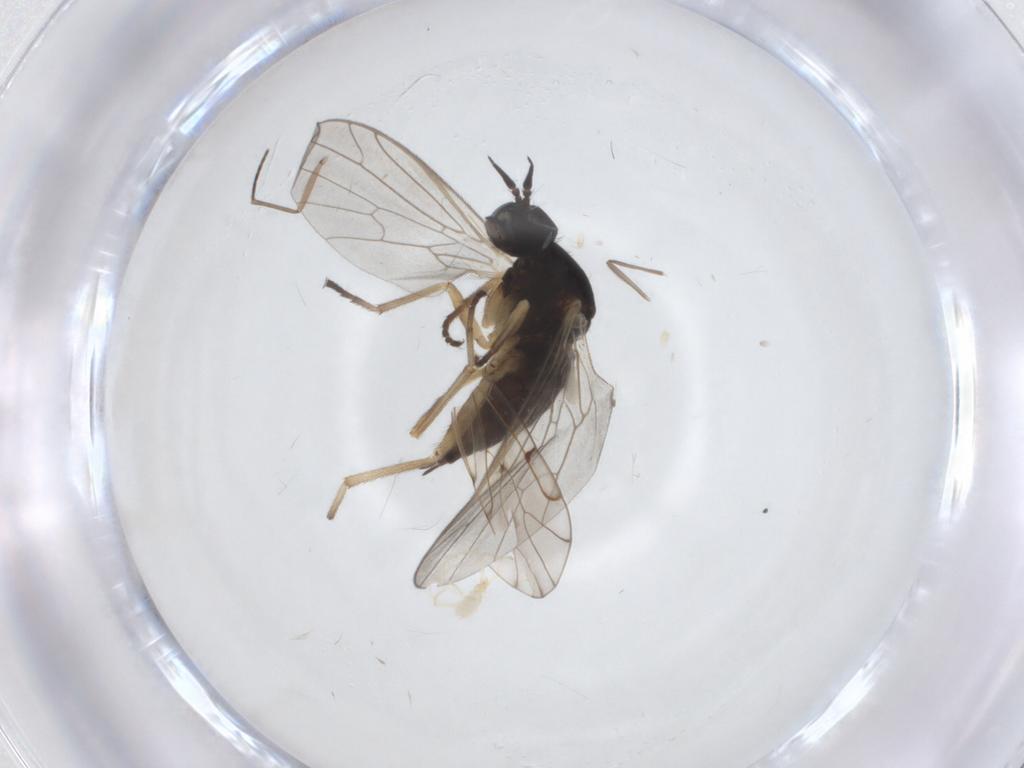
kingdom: Animalia
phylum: Arthropoda
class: Insecta
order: Diptera
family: Empididae
